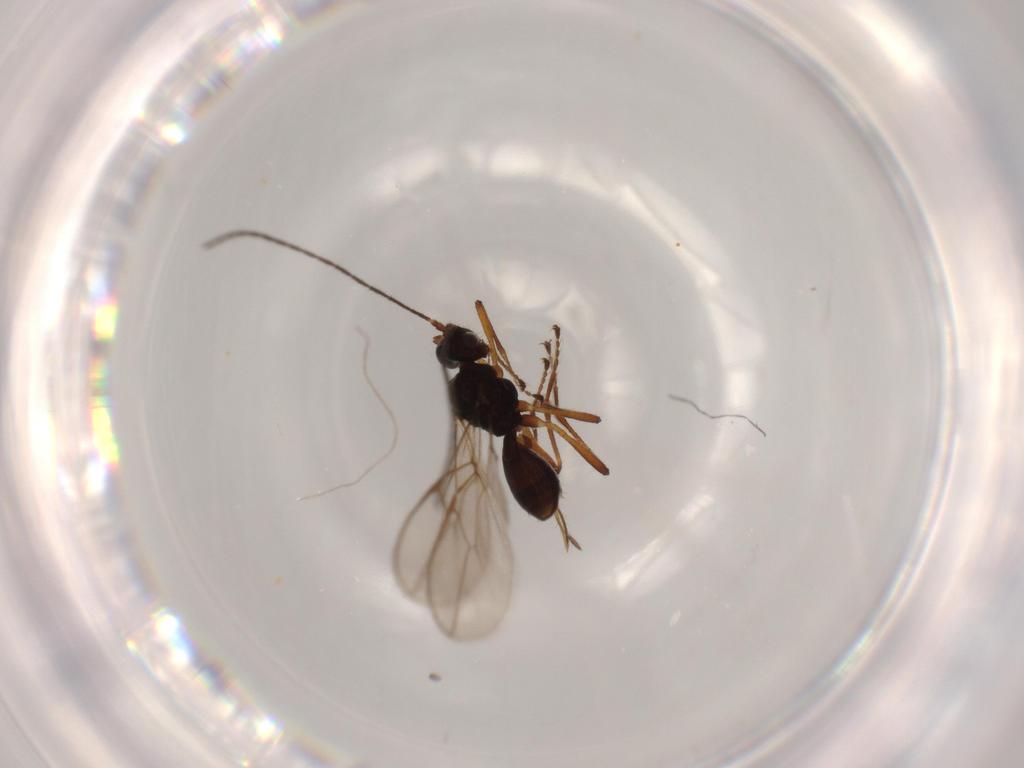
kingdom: Animalia
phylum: Arthropoda
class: Insecta
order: Hymenoptera
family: Braconidae
